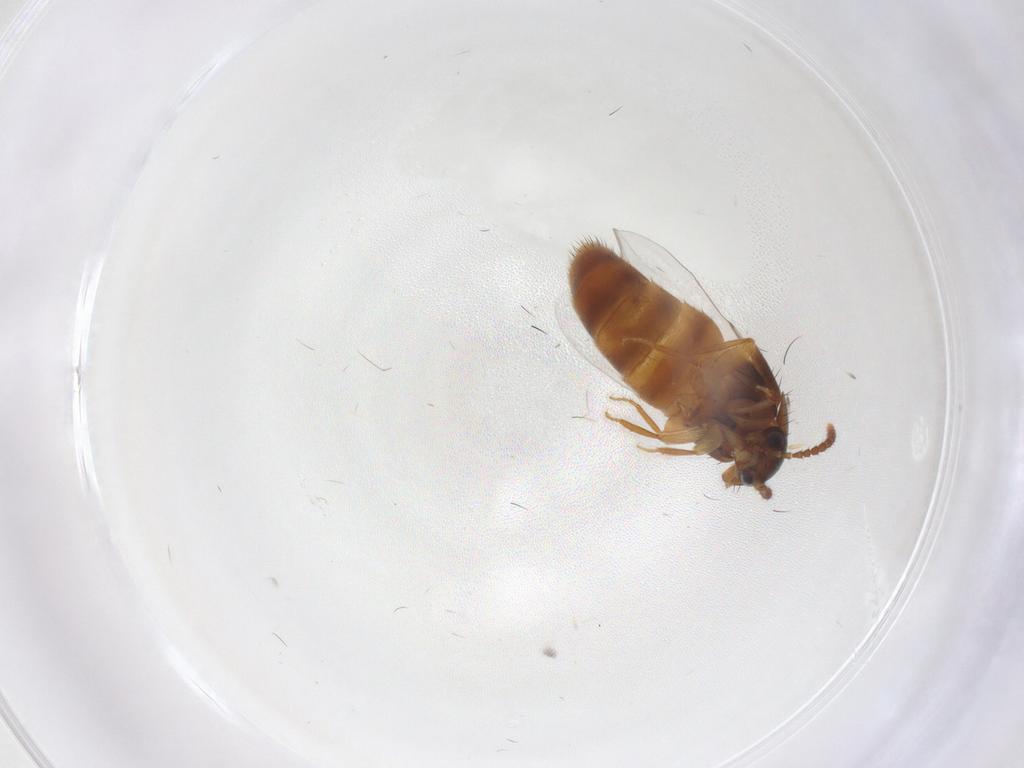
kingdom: Animalia
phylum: Arthropoda
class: Insecta
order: Coleoptera
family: Staphylinidae
